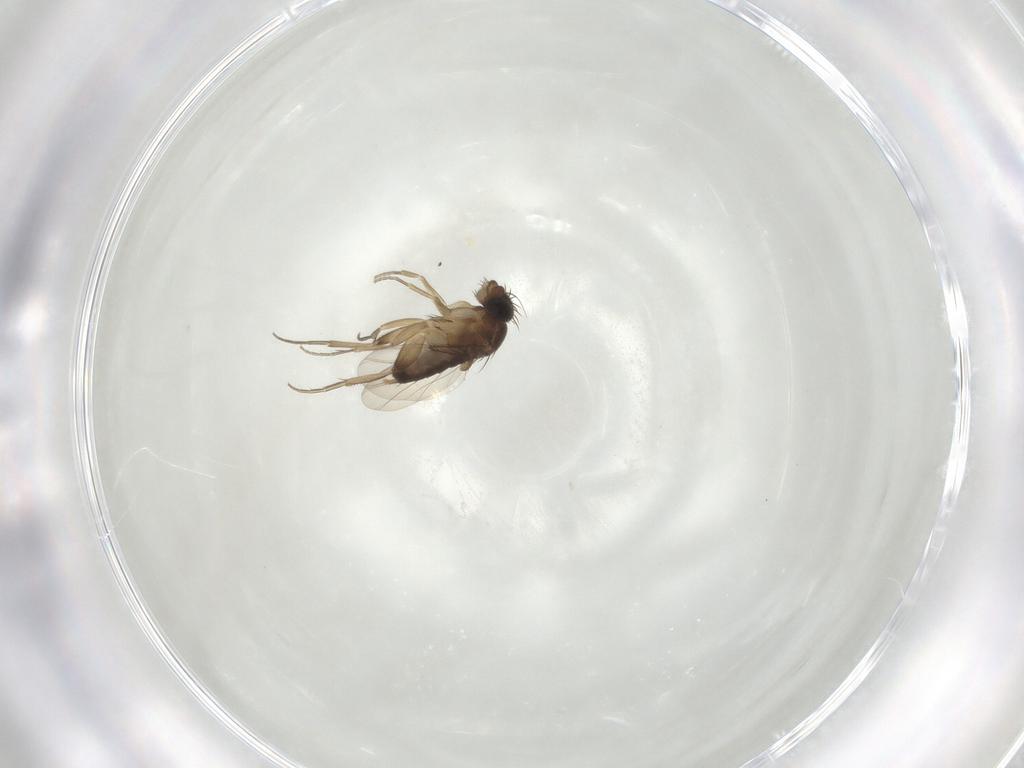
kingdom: Animalia
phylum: Arthropoda
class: Insecta
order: Diptera
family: Phoridae
